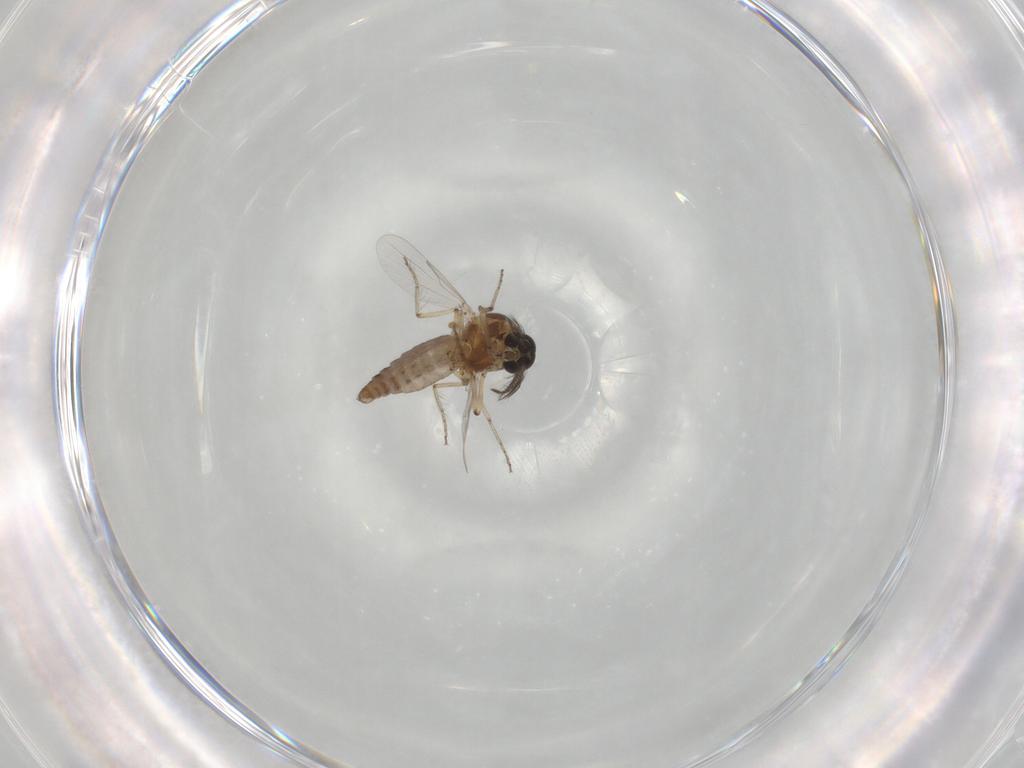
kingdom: Animalia
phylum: Arthropoda
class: Insecta
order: Diptera
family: Ceratopogonidae
